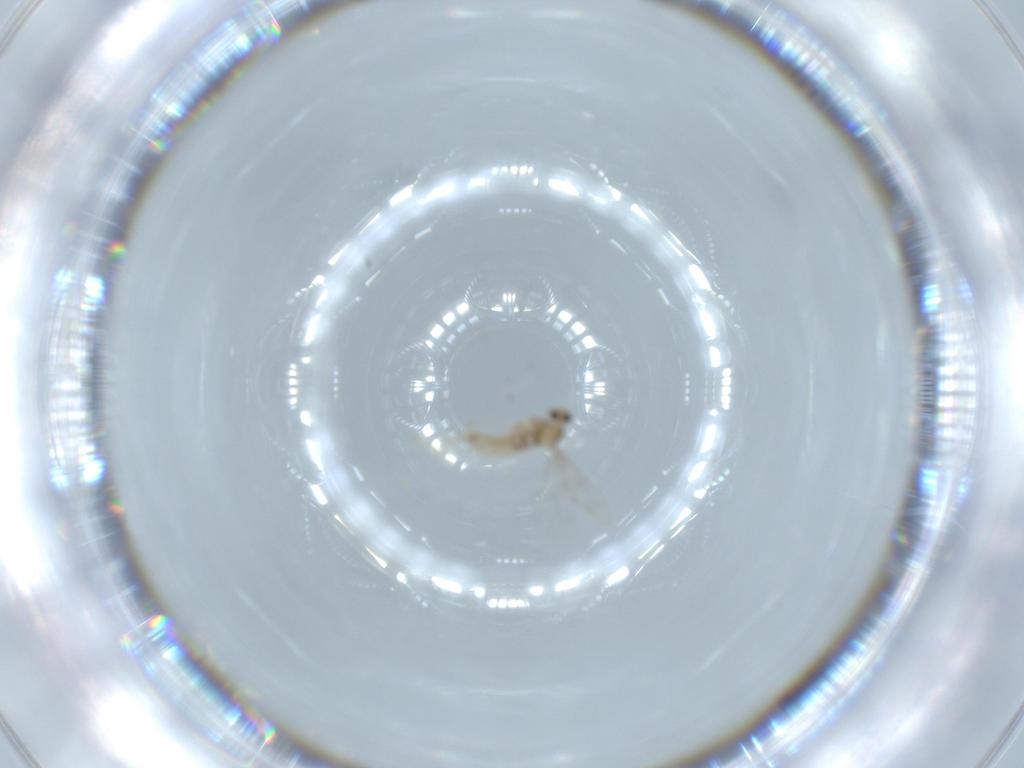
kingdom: Animalia
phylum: Arthropoda
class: Insecta
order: Diptera
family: Cecidomyiidae
